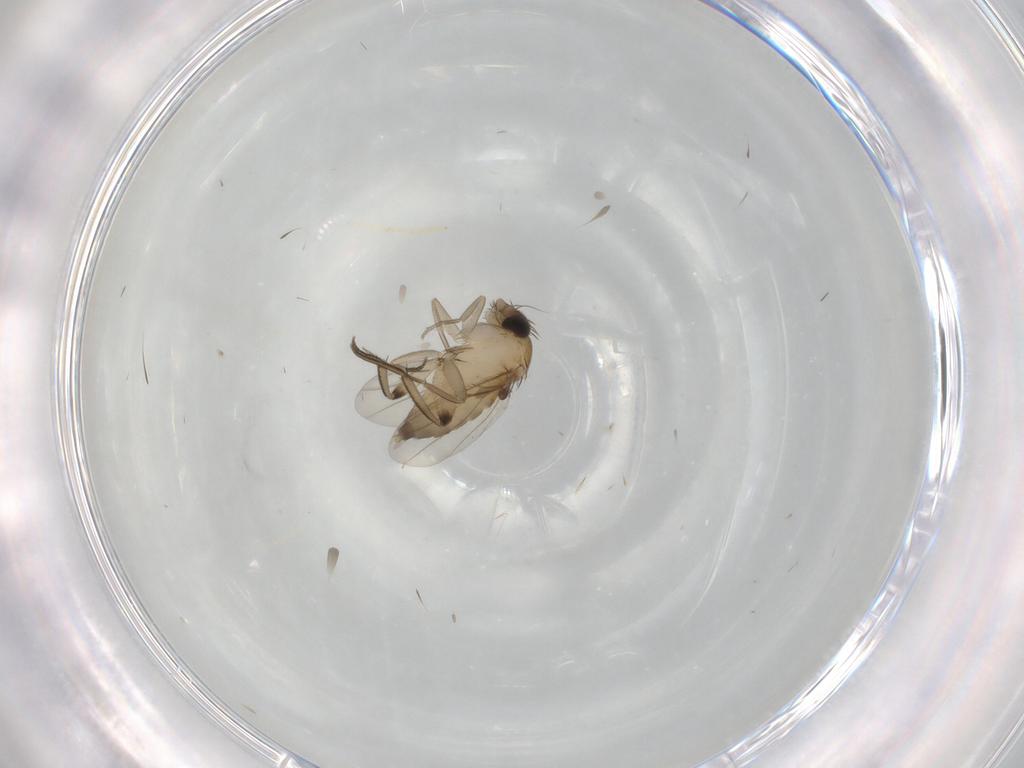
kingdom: Animalia
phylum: Arthropoda
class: Insecta
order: Diptera
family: Phoridae
